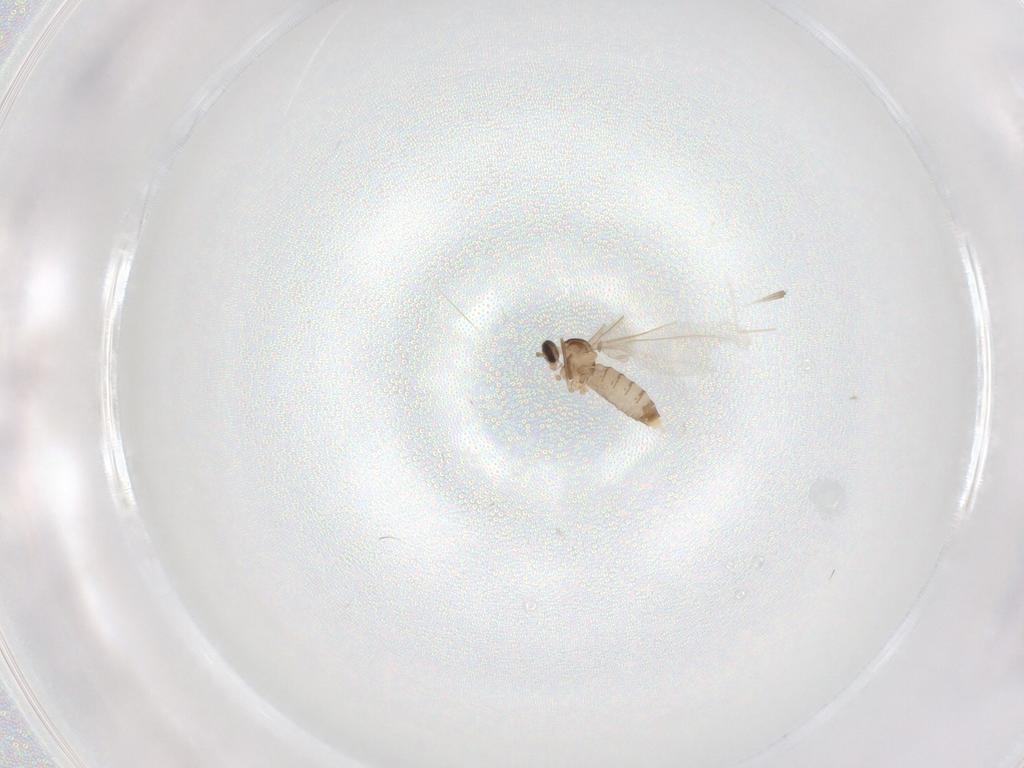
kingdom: Animalia
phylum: Arthropoda
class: Insecta
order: Diptera
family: Cecidomyiidae
